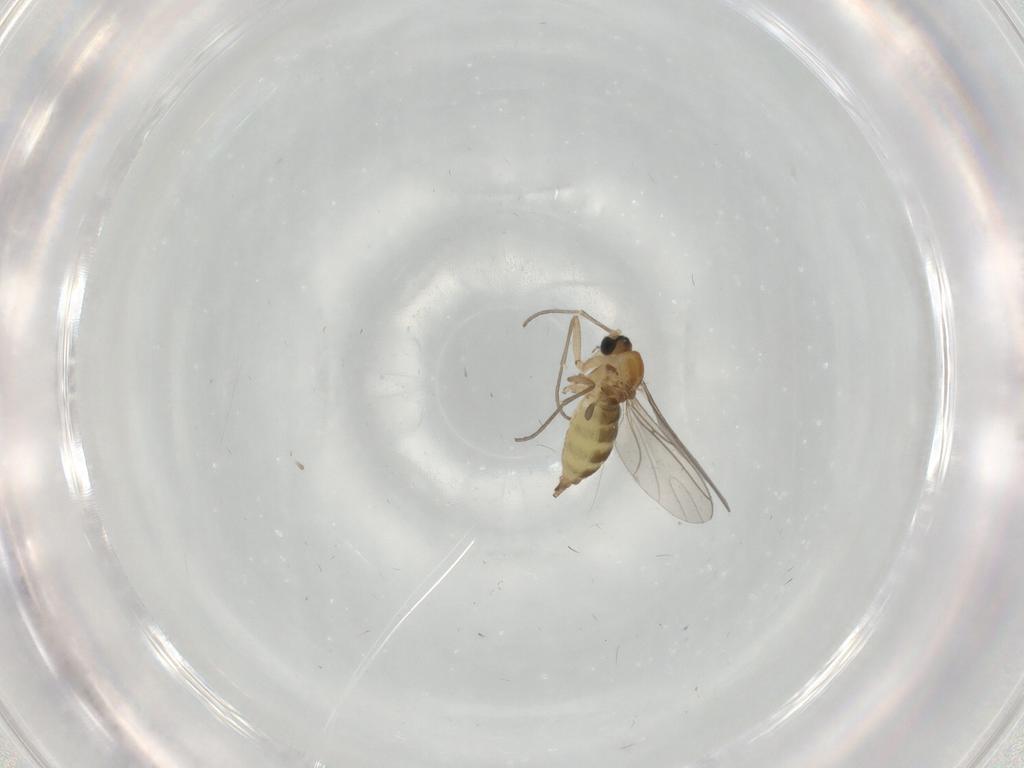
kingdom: Animalia
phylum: Arthropoda
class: Insecta
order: Diptera
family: Sciaridae
